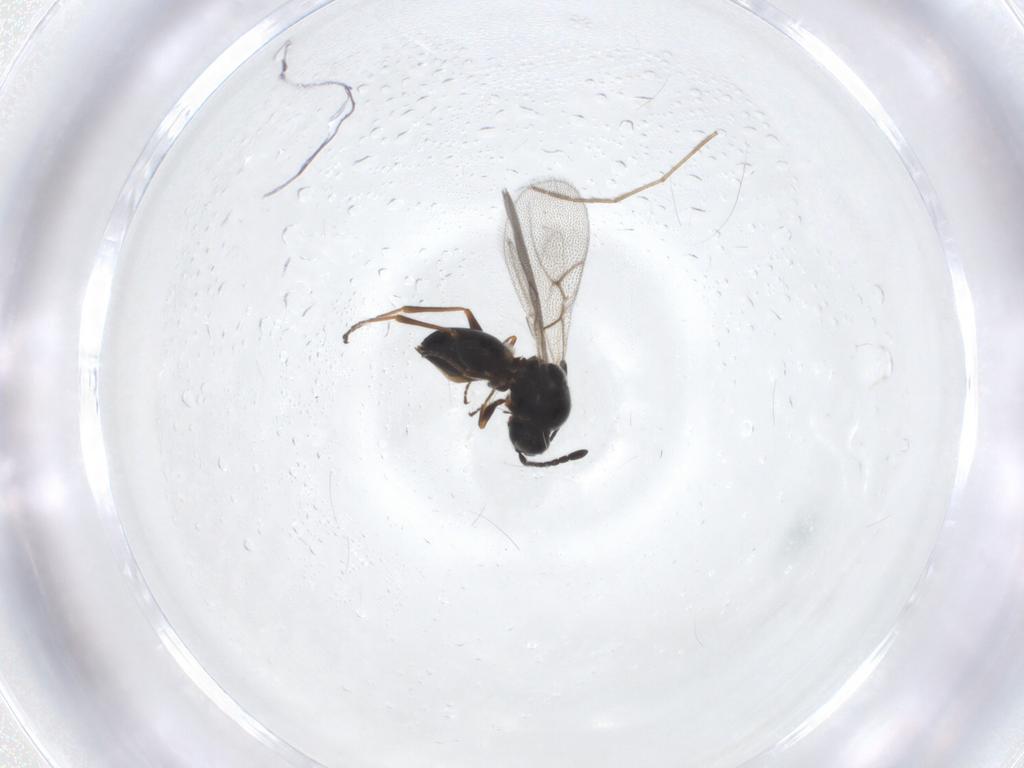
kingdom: Animalia
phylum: Arthropoda
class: Insecta
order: Hymenoptera
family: Figitidae
